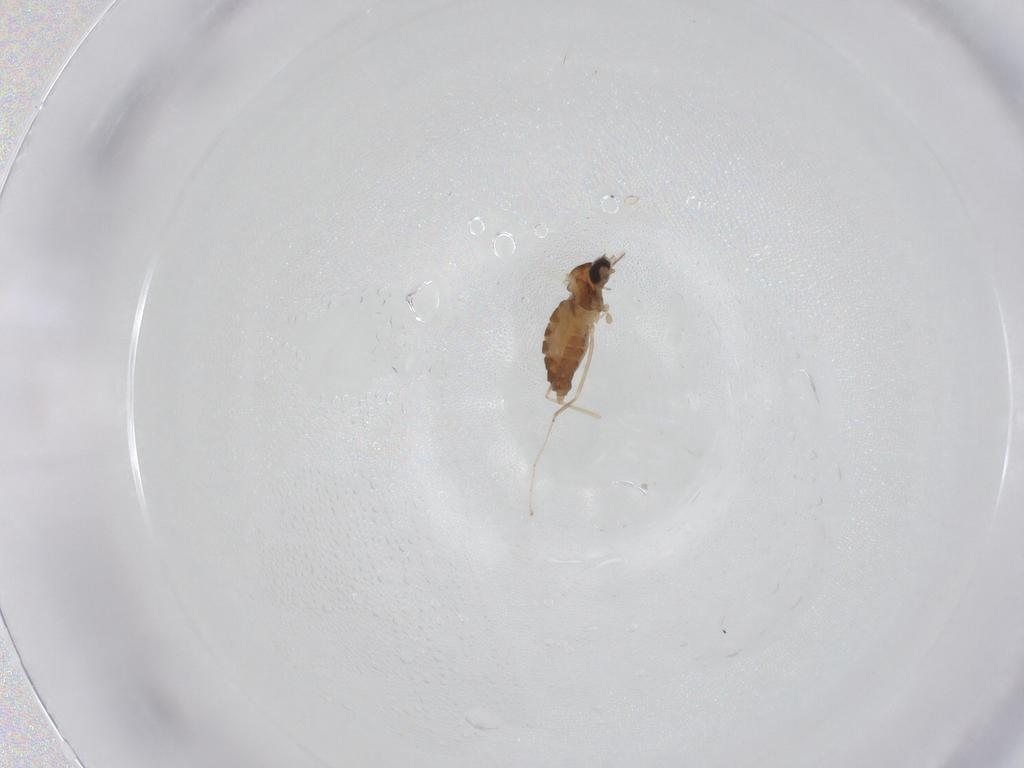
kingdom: Animalia
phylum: Arthropoda
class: Insecta
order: Diptera
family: Cecidomyiidae
